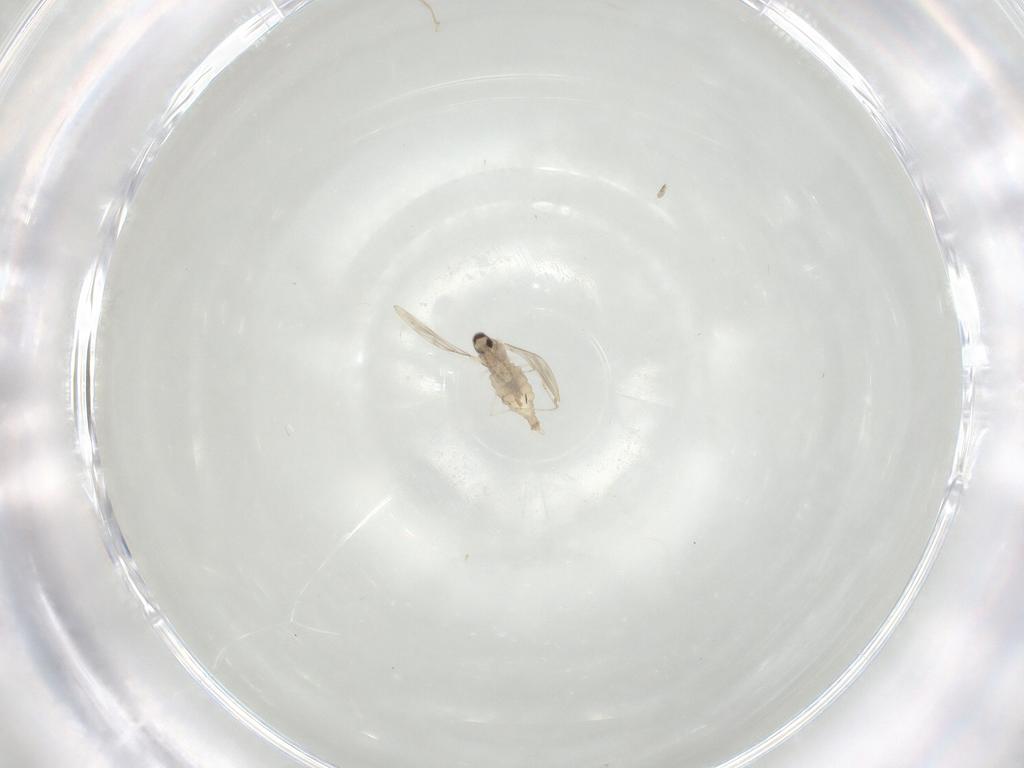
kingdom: Animalia
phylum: Arthropoda
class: Insecta
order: Diptera
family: Cecidomyiidae
